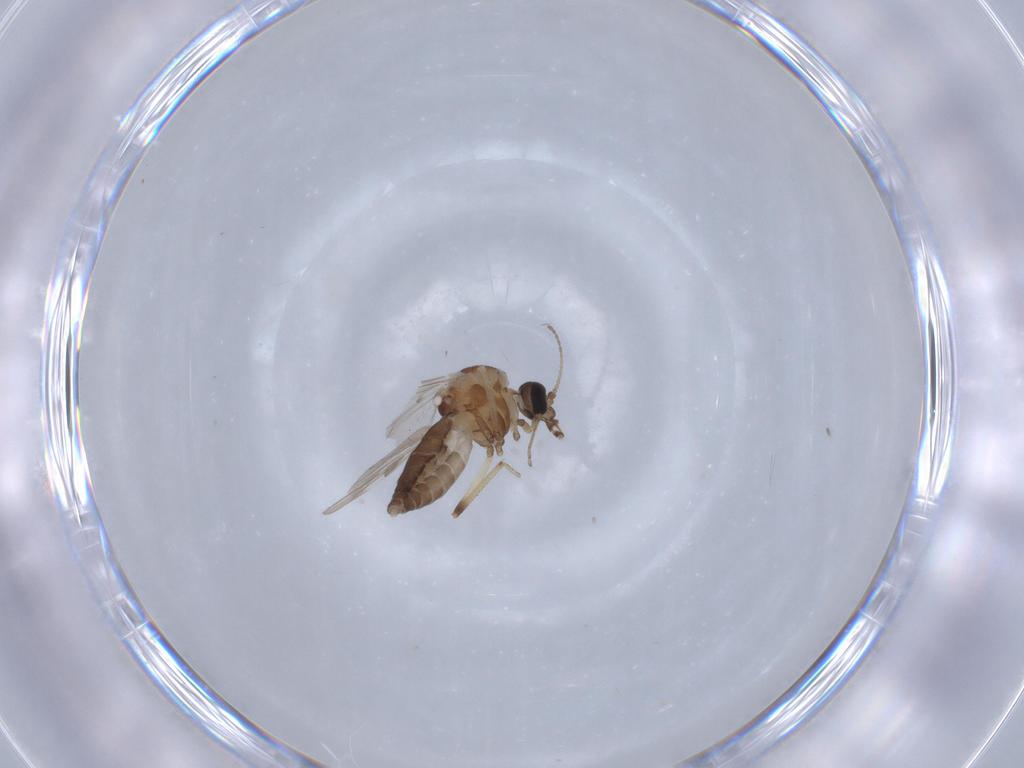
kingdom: Animalia
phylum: Arthropoda
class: Insecta
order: Diptera
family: Ceratopogonidae
